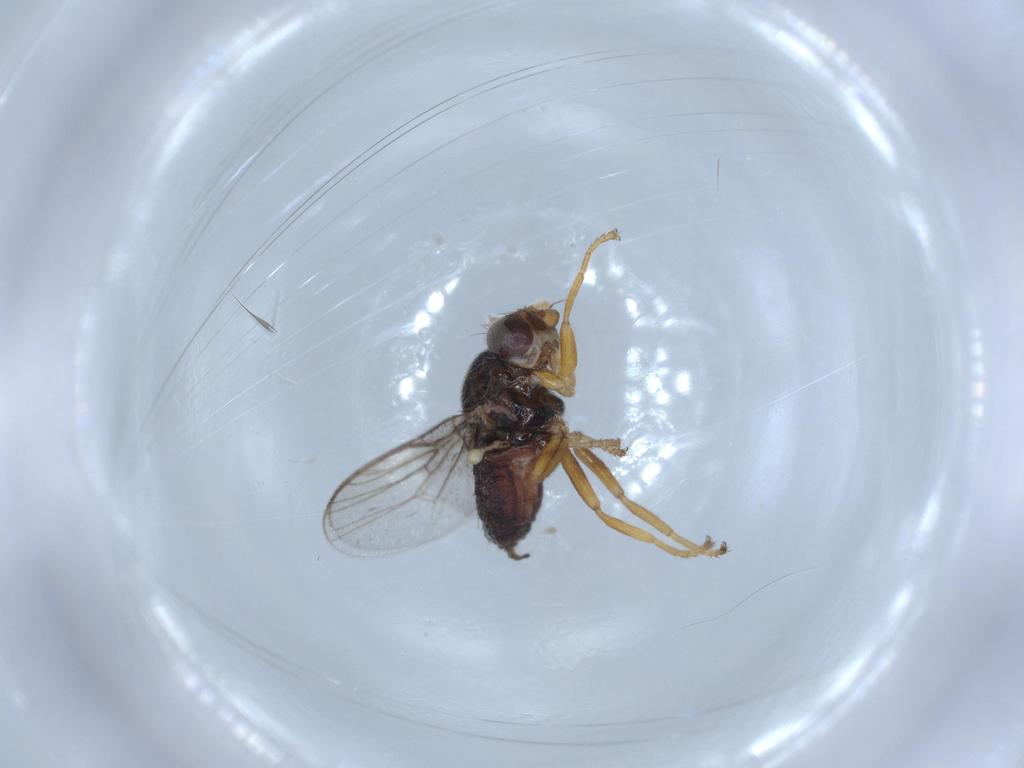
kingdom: Animalia
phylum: Arthropoda
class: Insecta
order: Diptera
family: Chloropidae
